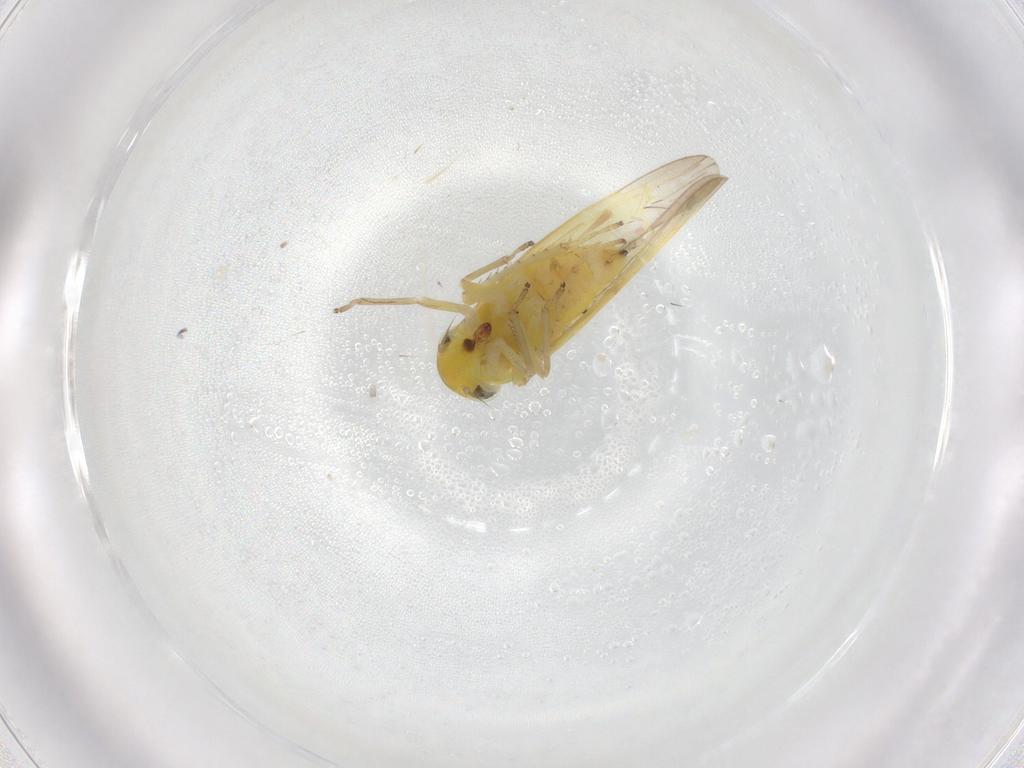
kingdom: Animalia
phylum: Arthropoda
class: Insecta
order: Hemiptera
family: Cicadellidae
